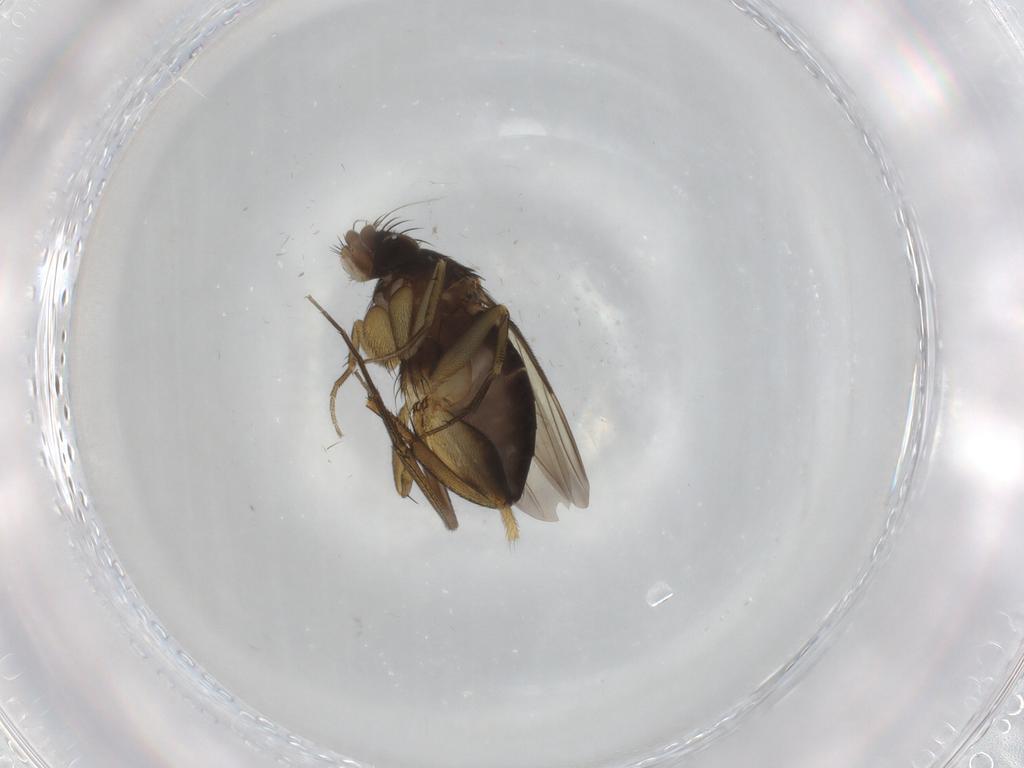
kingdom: Animalia
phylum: Arthropoda
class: Insecta
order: Diptera
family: Phoridae
